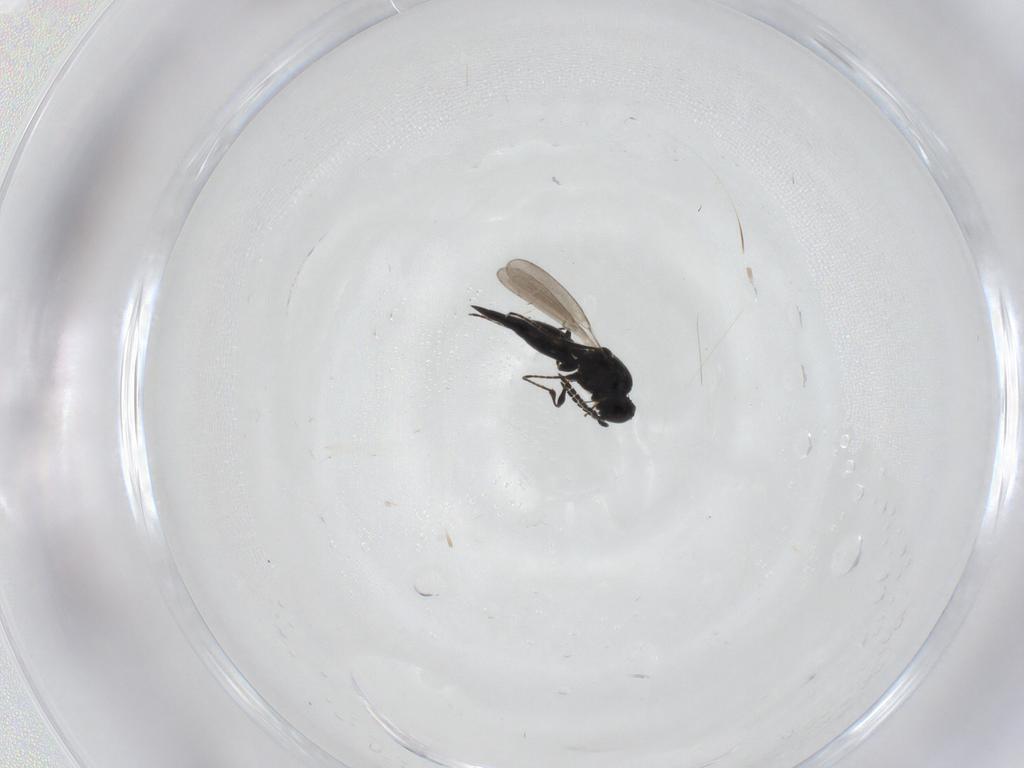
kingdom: Animalia
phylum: Arthropoda
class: Insecta
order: Hymenoptera
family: Platygastridae
